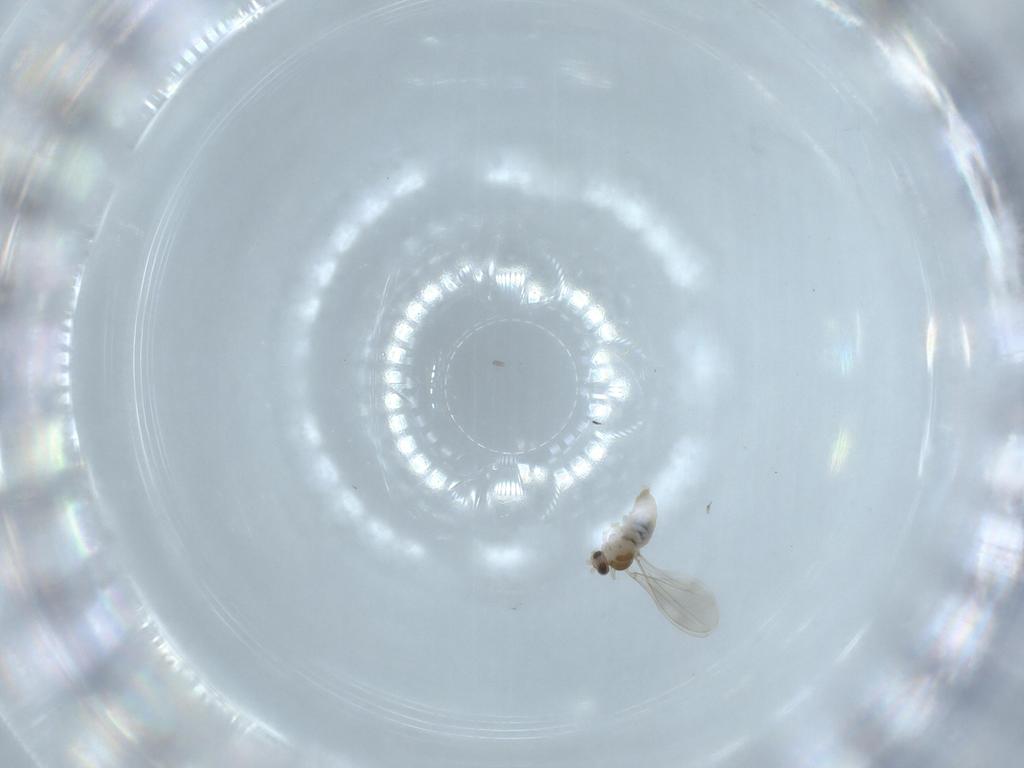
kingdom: Animalia
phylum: Arthropoda
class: Insecta
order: Diptera
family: Cecidomyiidae
